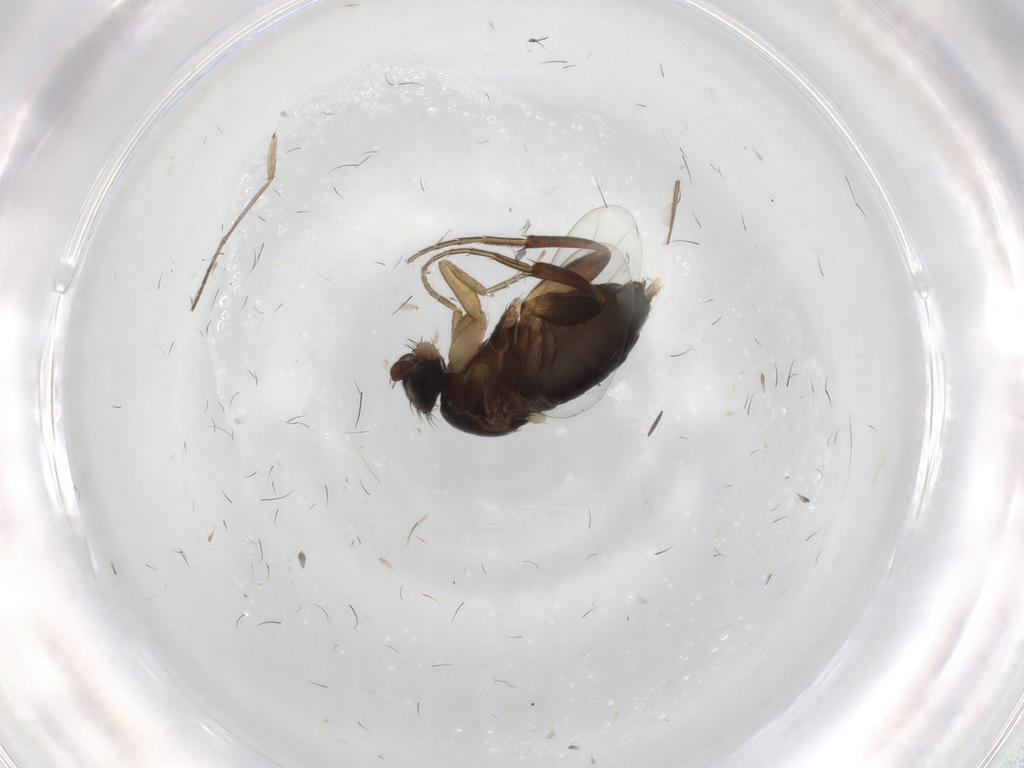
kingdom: Animalia
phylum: Arthropoda
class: Insecta
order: Diptera
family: Phoridae
